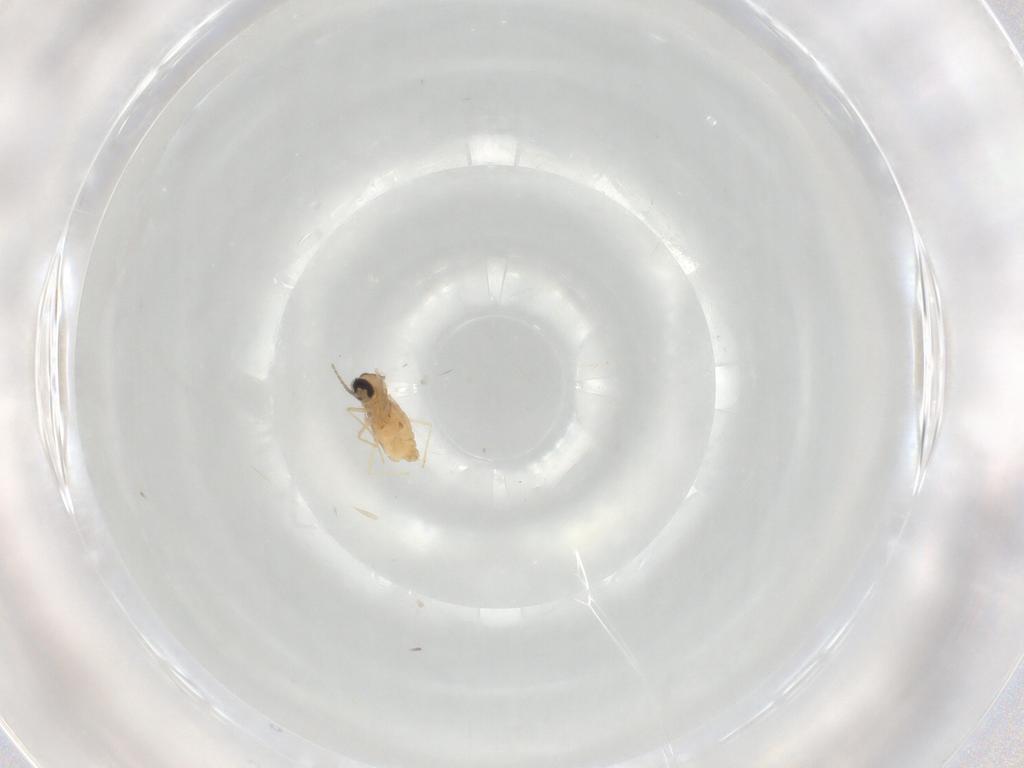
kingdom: Animalia
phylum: Arthropoda
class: Insecta
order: Diptera
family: Cecidomyiidae
